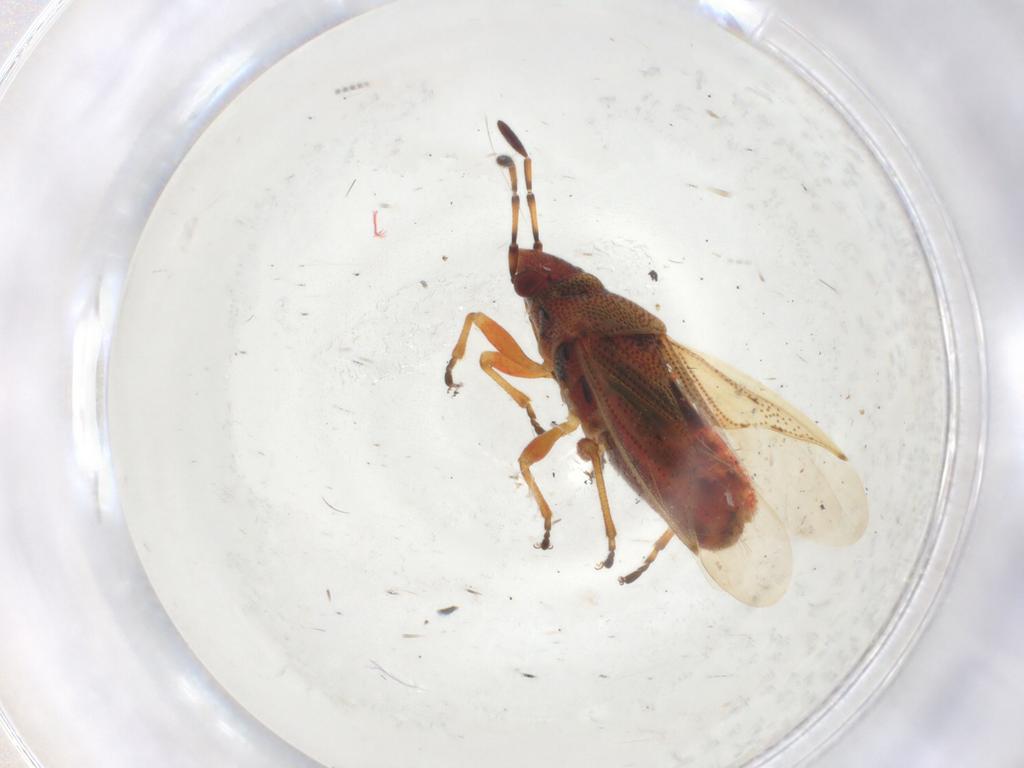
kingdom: Animalia
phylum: Arthropoda
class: Insecta
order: Hemiptera
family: Lygaeidae
